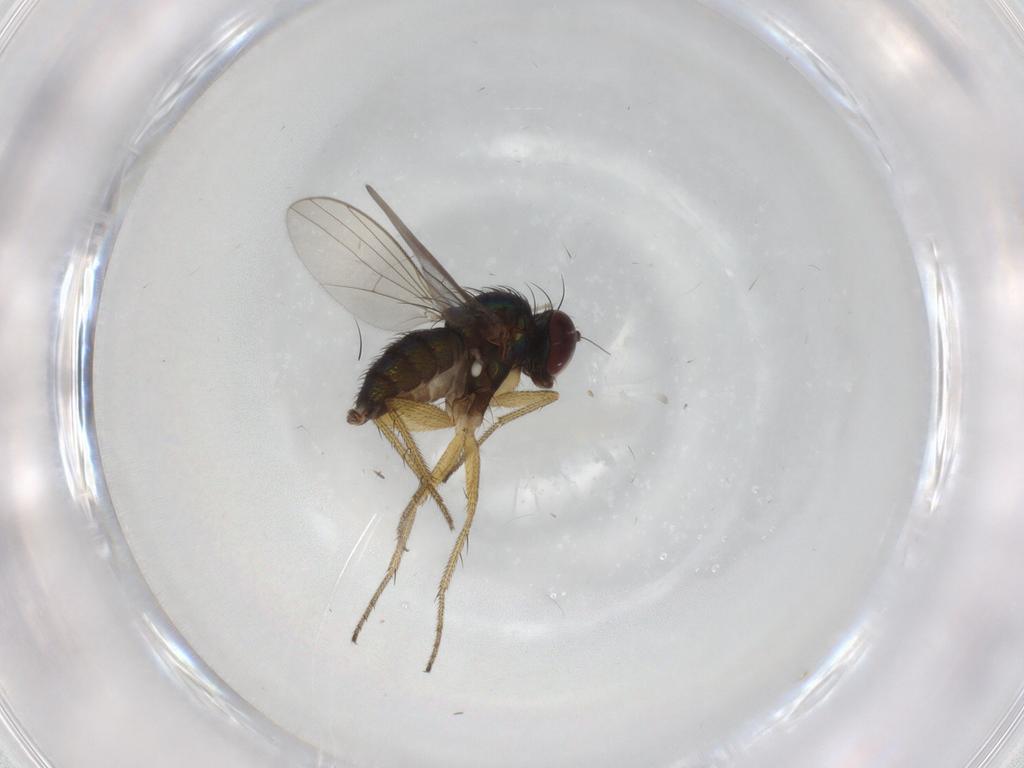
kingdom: Animalia
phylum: Arthropoda
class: Insecta
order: Diptera
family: Dolichopodidae
